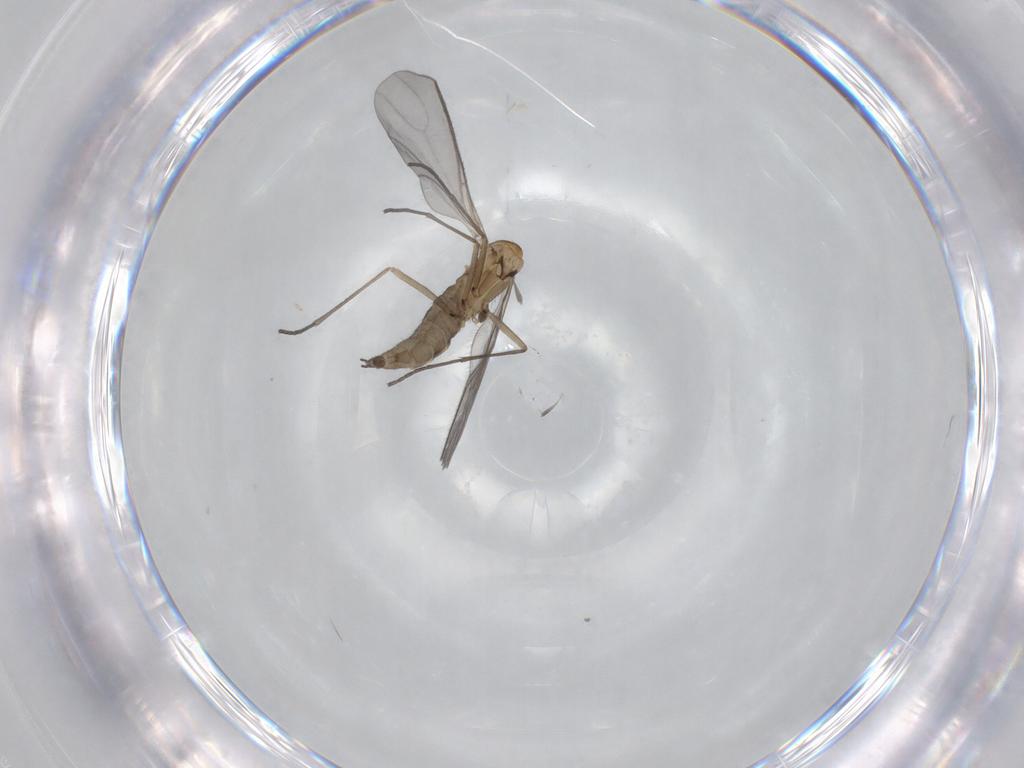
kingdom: Animalia
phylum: Arthropoda
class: Insecta
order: Diptera
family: Sciaridae
